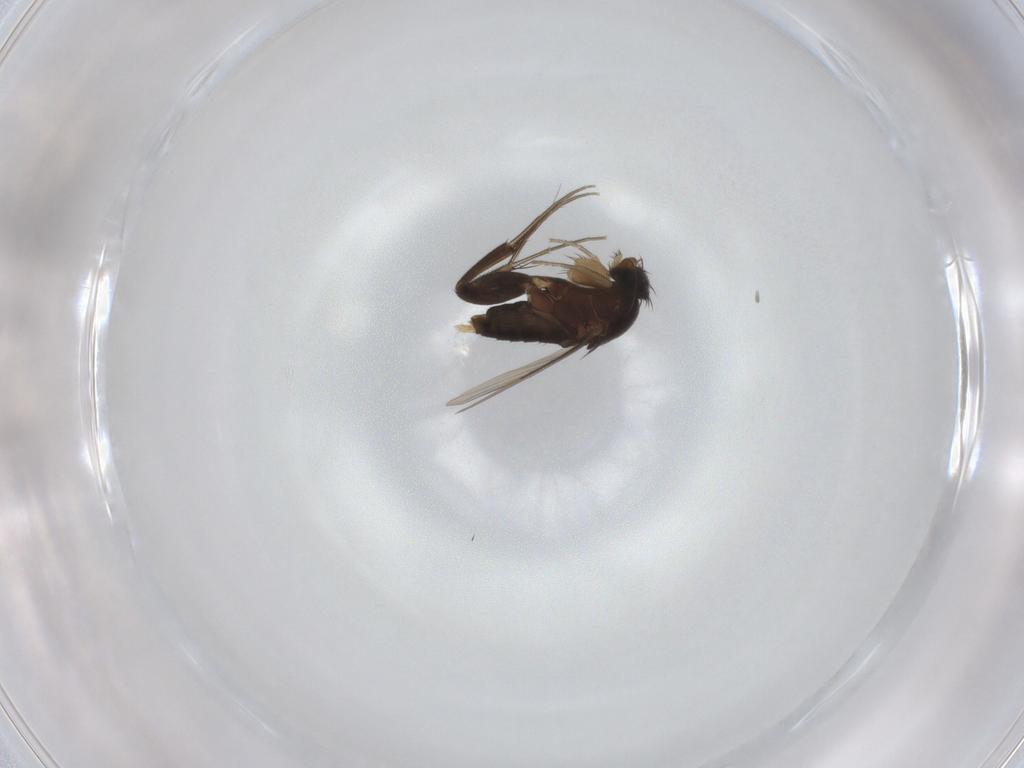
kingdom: Animalia
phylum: Arthropoda
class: Insecta
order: Diptera
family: Phoridae
